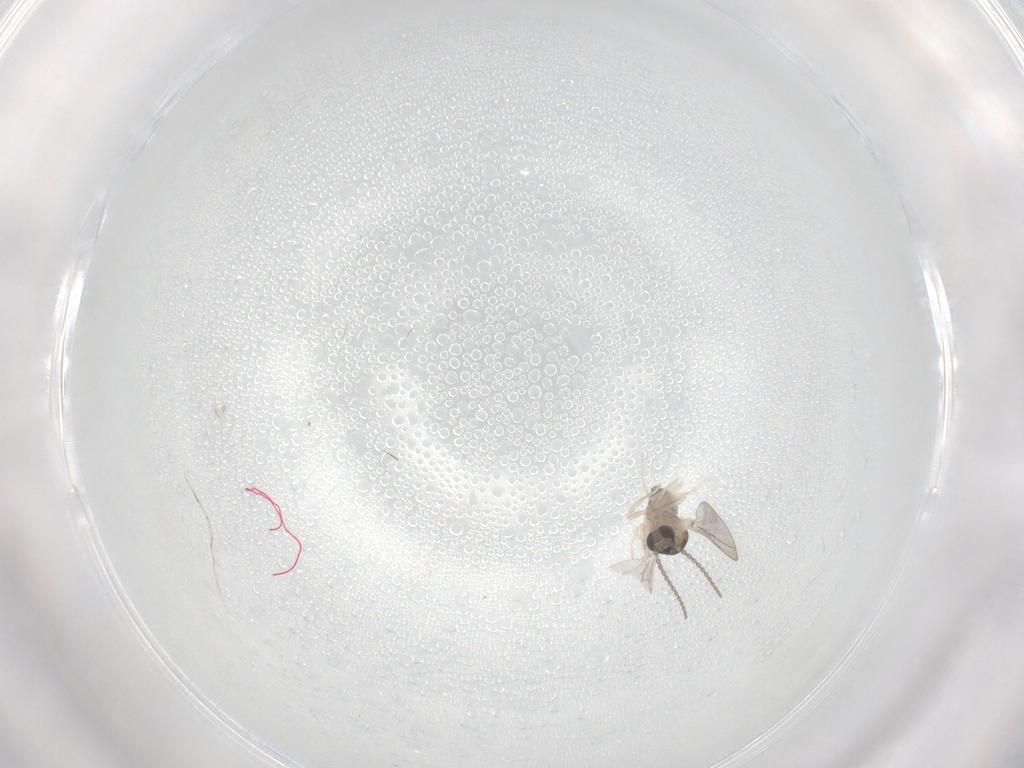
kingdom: Animalia
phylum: Arthropoda
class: Insecta
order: Diptera
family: Cecidomyiidae
